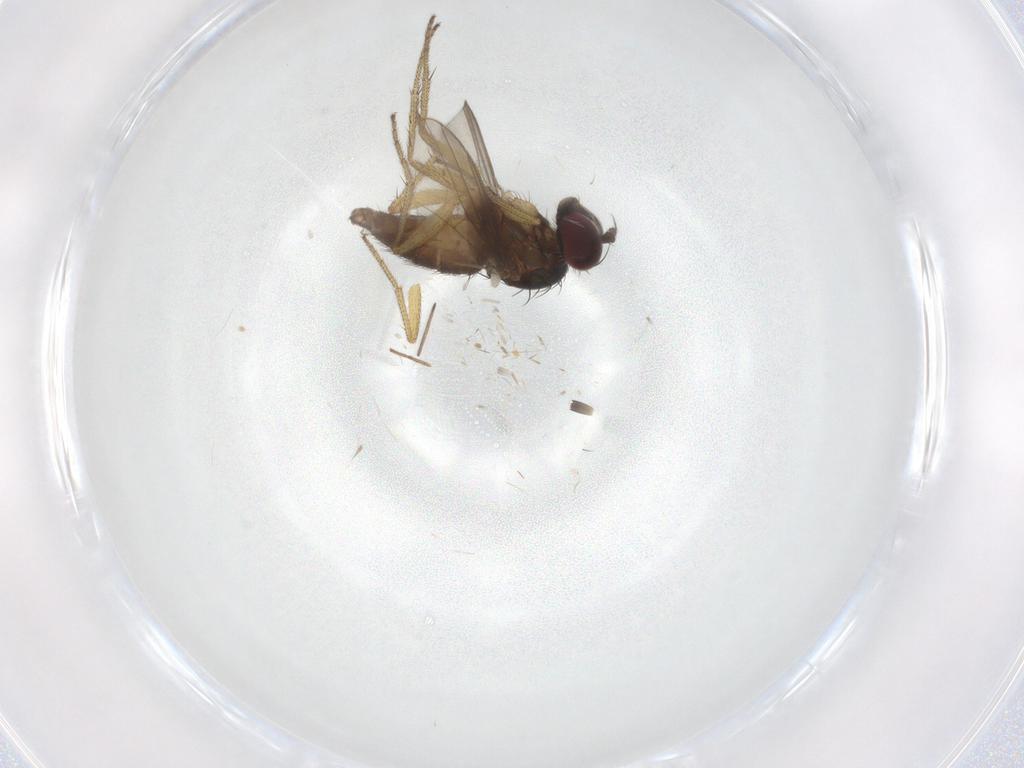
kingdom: Animalia
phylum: Arthropoda
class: Insecta
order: Diptera
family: Dolichopodidae
